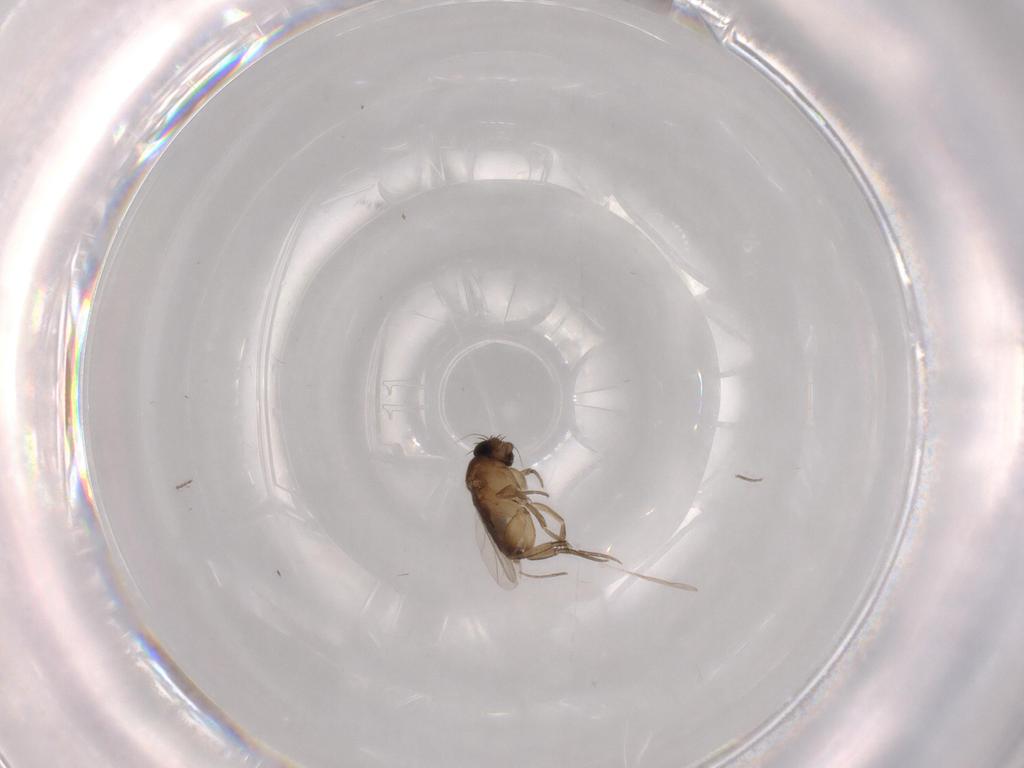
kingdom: Animalia
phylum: Arthropoda
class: Insecta
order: Diptera
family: Phoridae
